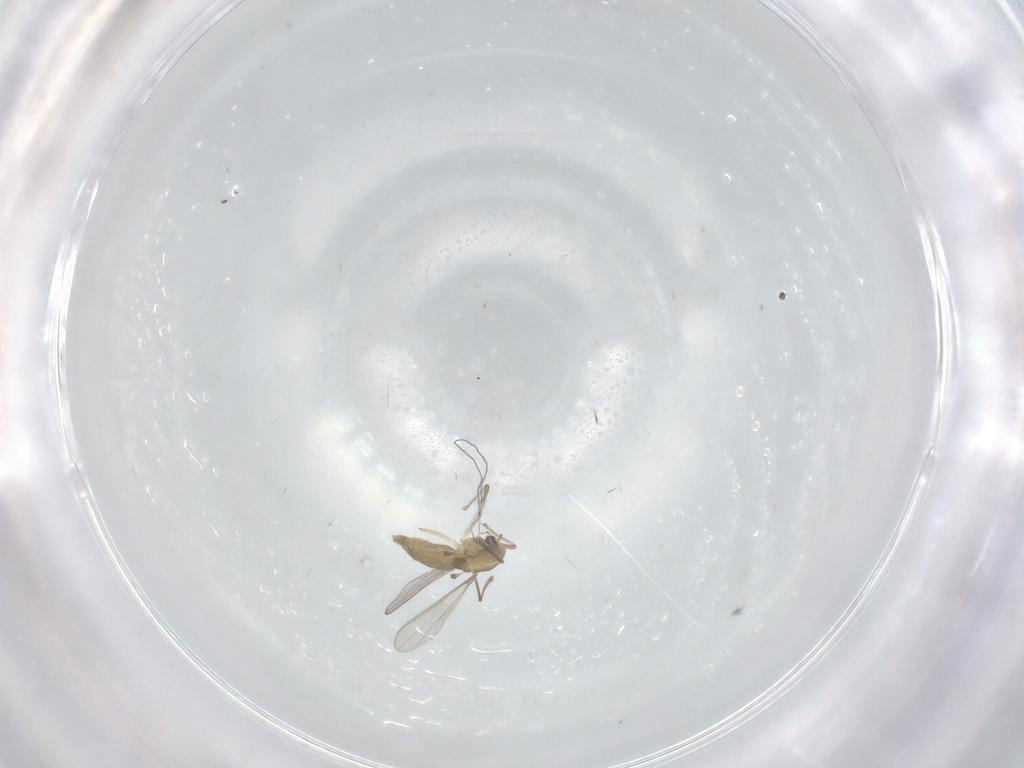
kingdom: Animalia
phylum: Arthropoda
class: Insecta
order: Diptera
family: Chironomidae
